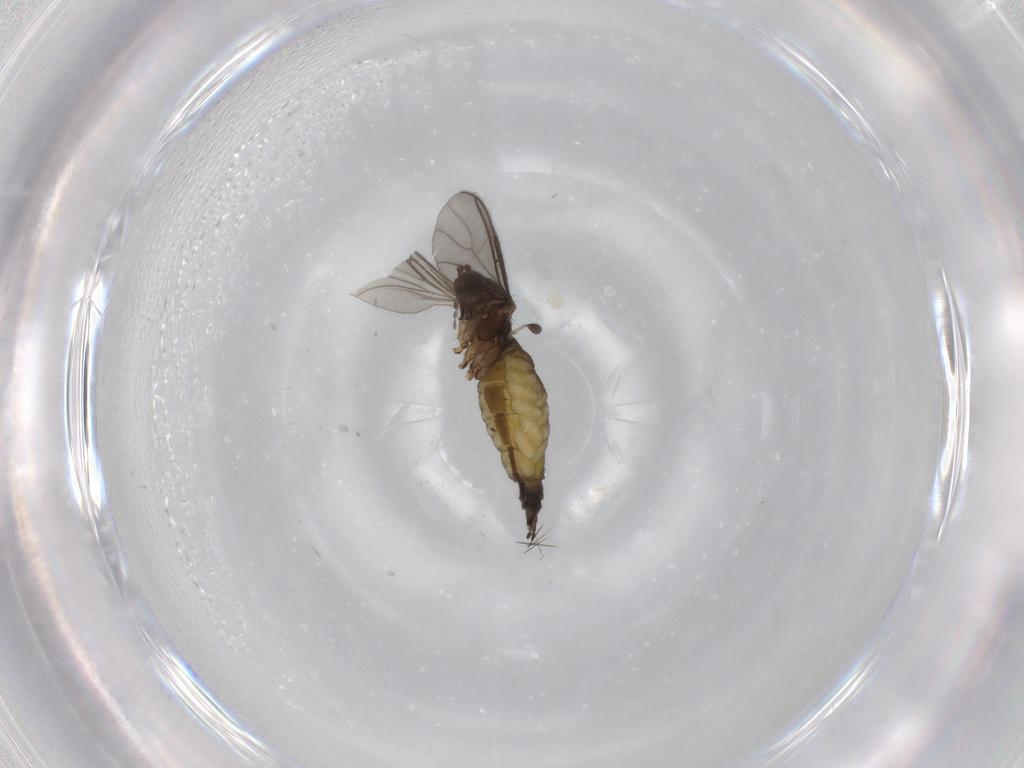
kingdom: Animalia
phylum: Arthropoda
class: Insecta
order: Diptera
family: Sciaridae
